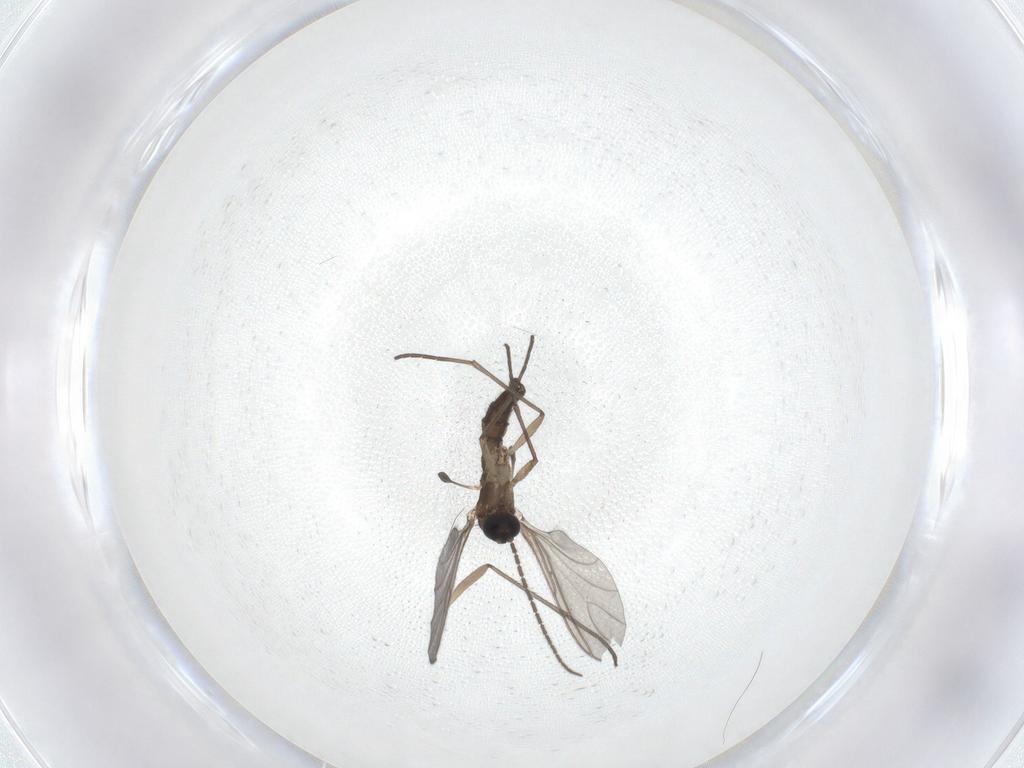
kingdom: Animalia
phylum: Arthropoda
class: Insecta
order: Diptera
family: Sciaridae
